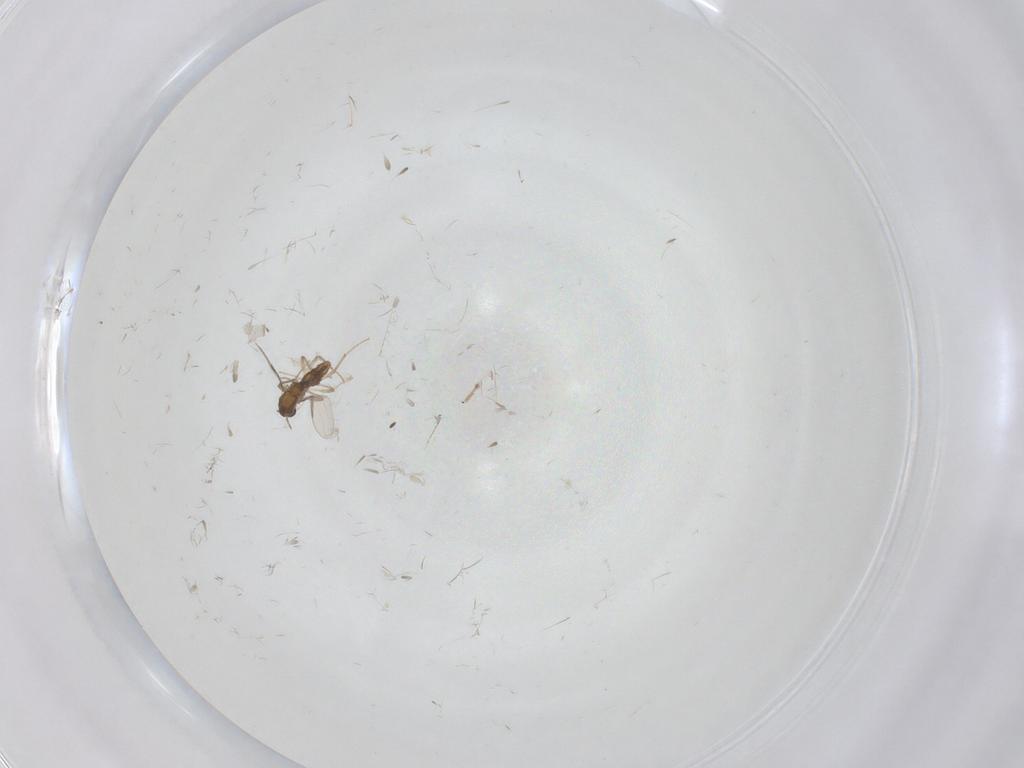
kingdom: Animalia
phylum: Arthropoda
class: Insecta
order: Diptera
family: Chironomidae
